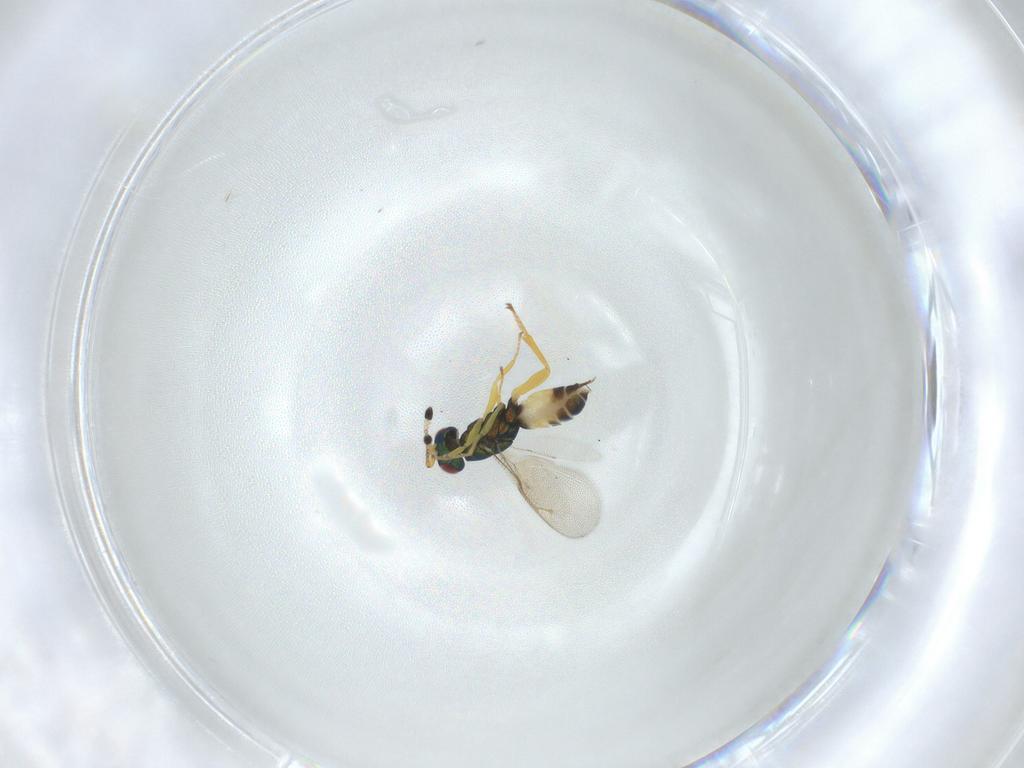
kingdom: Animalia
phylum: Arthropoda
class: Insecta
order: Hymenoptera
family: Pteromalidae
